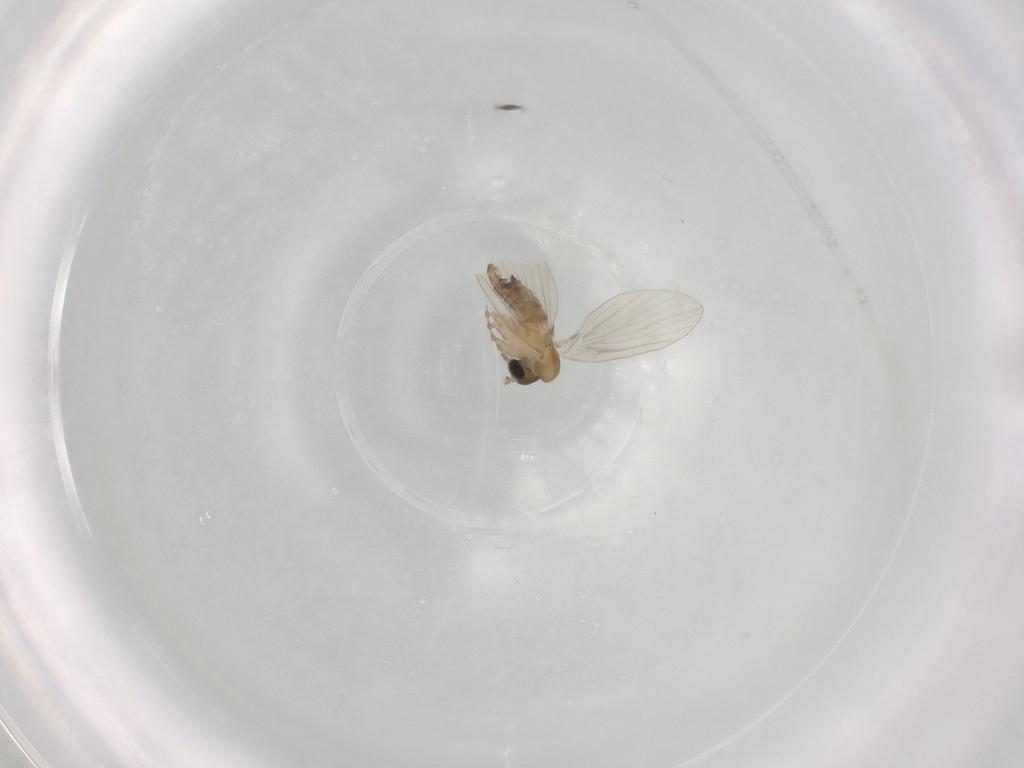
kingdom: Animalia
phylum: Arthropoda
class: Insecta
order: Diptera
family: Psychodidae
